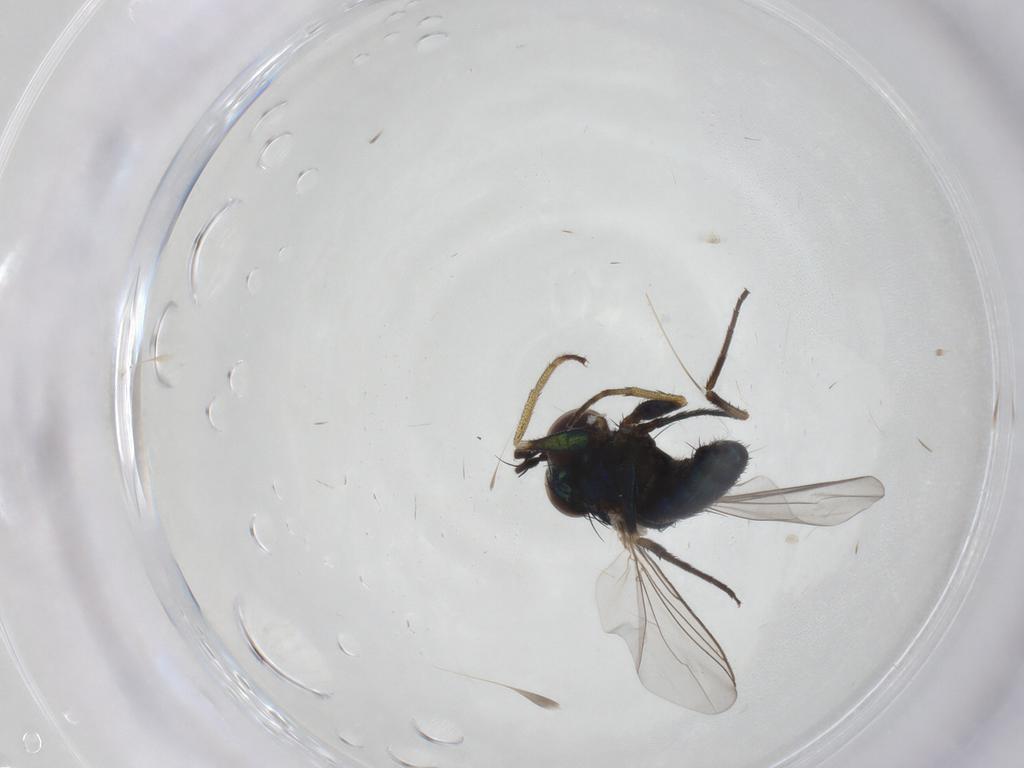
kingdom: Animalia
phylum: Arthropoda
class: Insecta
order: Diptera
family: Dolichopodidae
